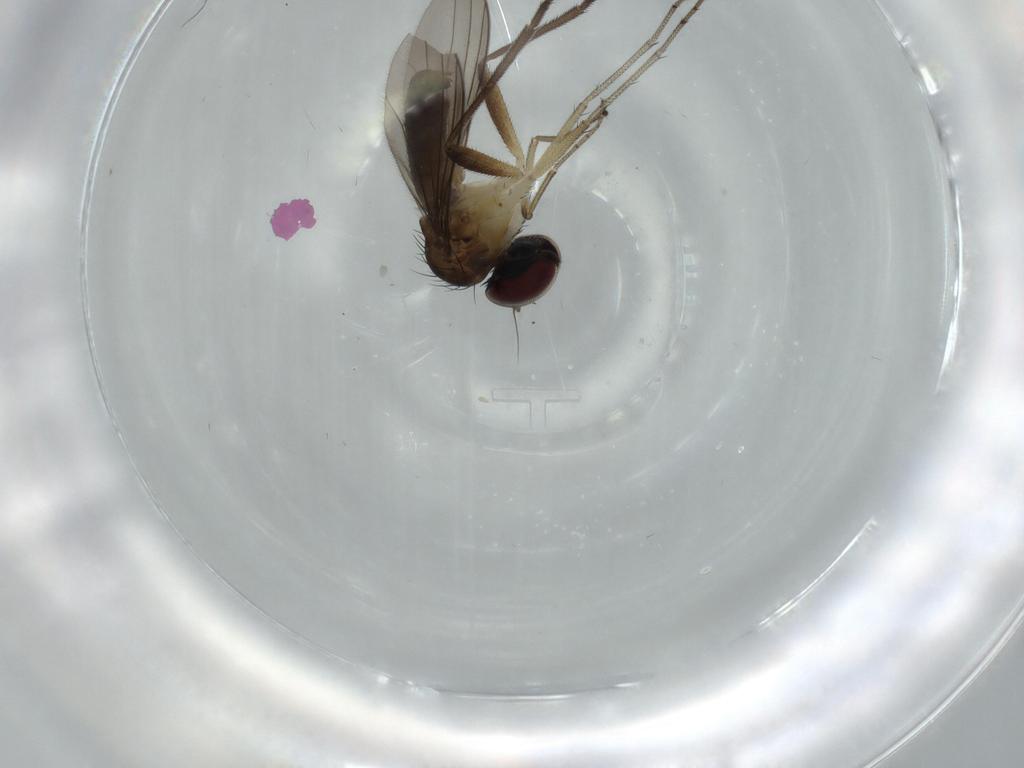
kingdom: Animalia
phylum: Arthropoda
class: Insecta
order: Diptera
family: Dolichopodidae
